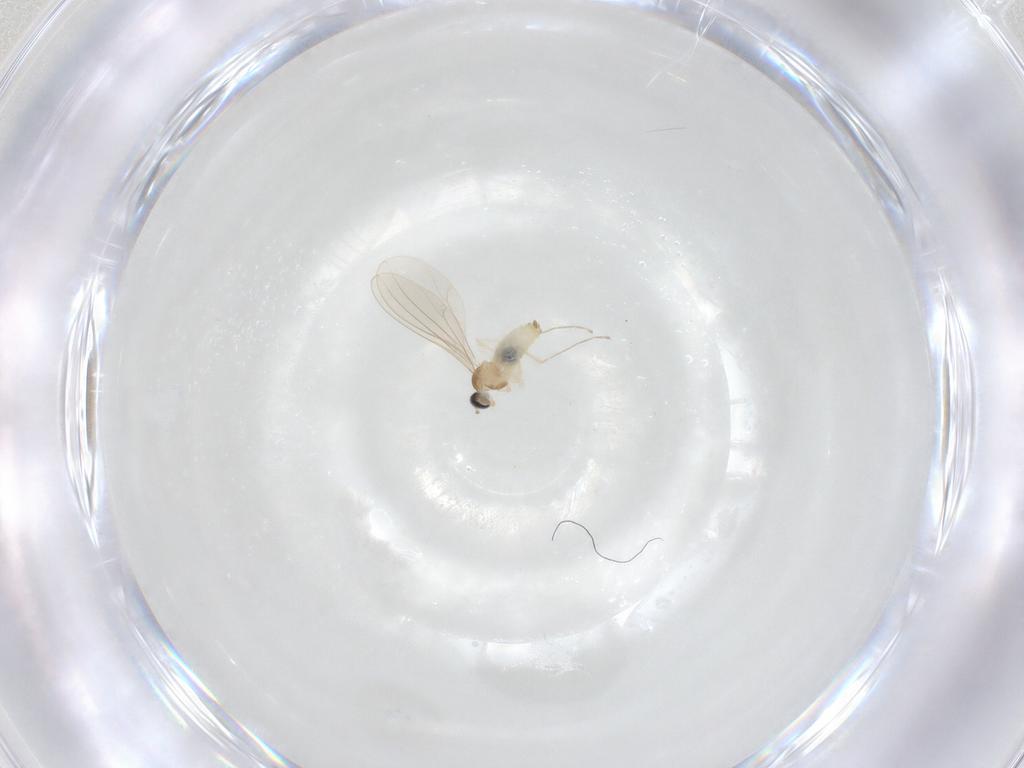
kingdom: Animalia
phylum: Arthropoda
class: Insecta
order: Diptera
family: Cecidomyiidae
